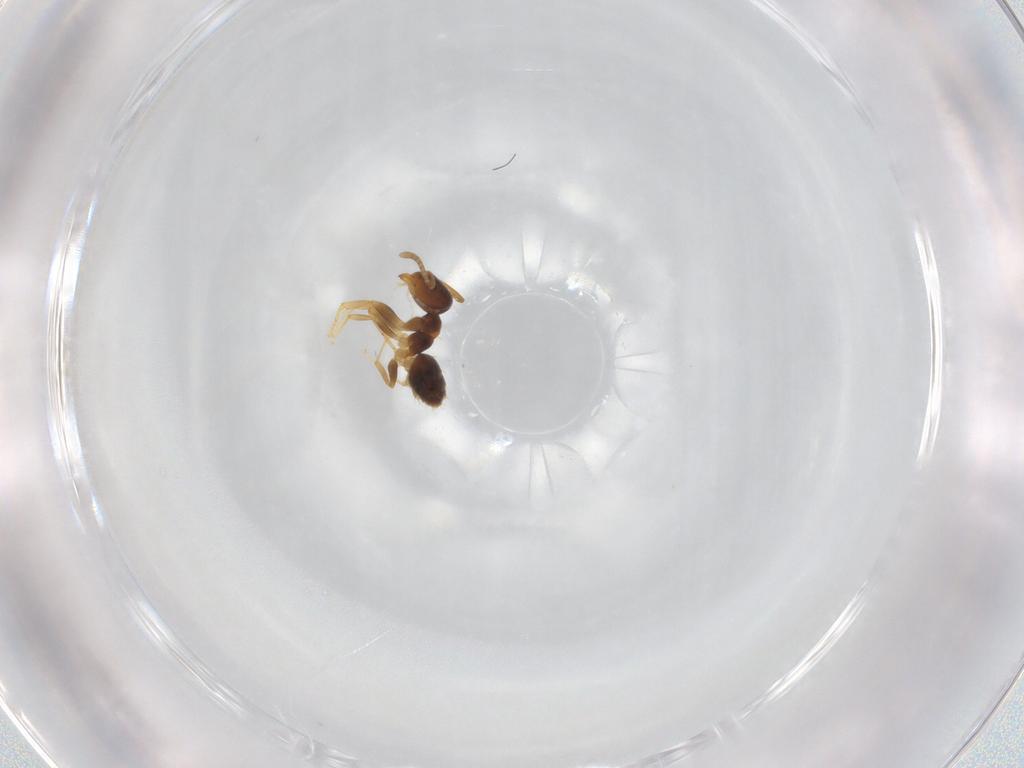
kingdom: Animalia
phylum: Arthropoda
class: Insecta
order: Hymenoptera
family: Formicidae
